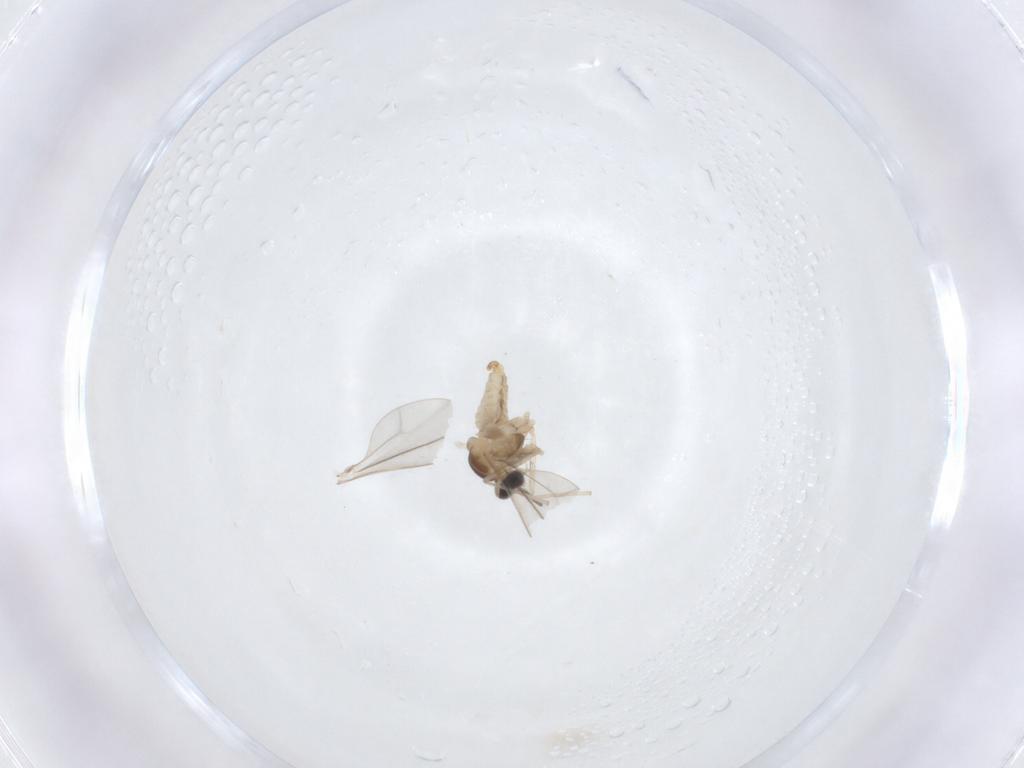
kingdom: Animalia
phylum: Arthropoda
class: Insecta
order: Diptera
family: Cecidomyiidae
